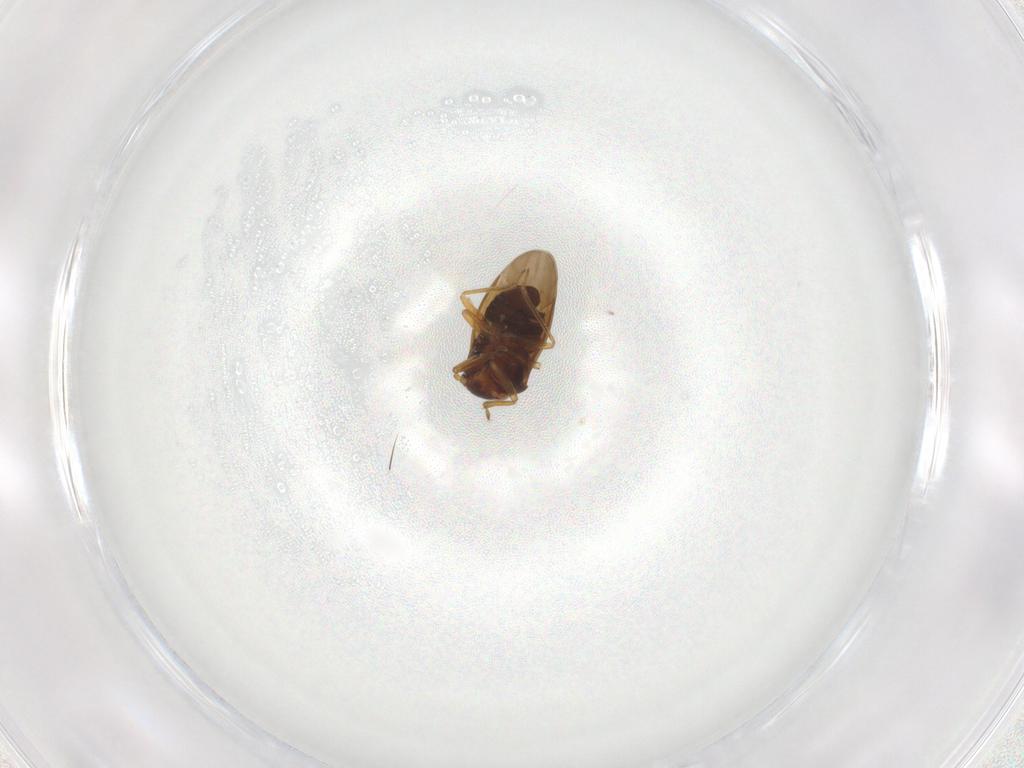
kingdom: Animalia
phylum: Arthropoda
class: Insecta
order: Hemiptera
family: Schizopteridae
